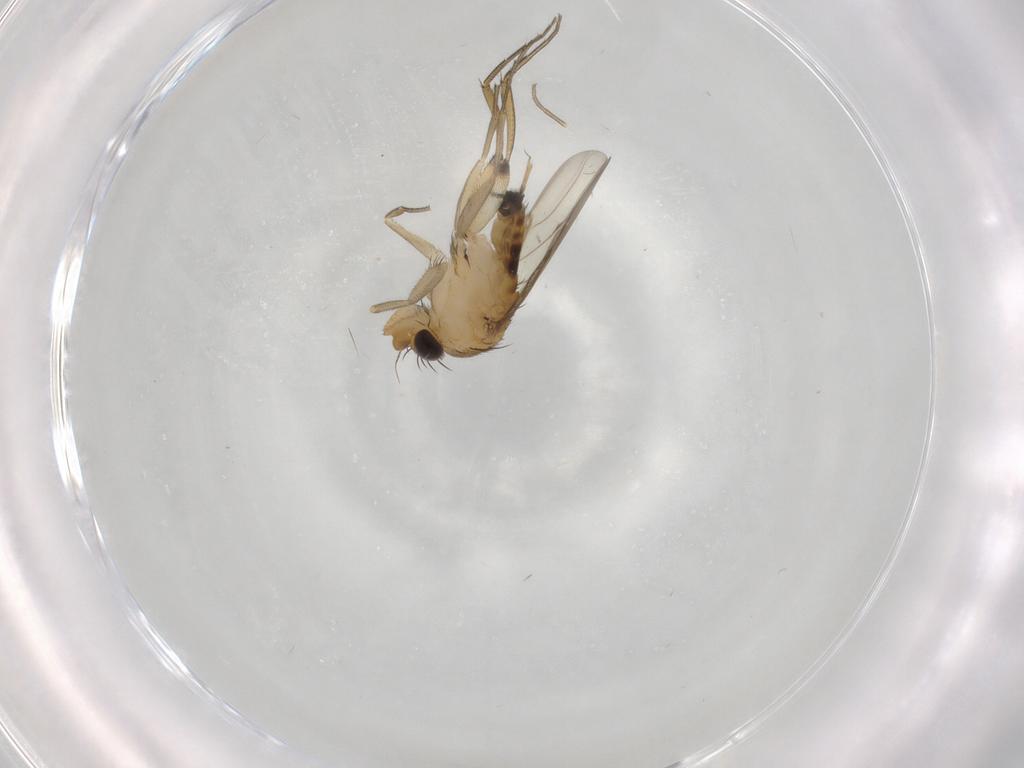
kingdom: Animalia
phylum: Arthropoda
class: Insecta
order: Diptera
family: Phoridae
